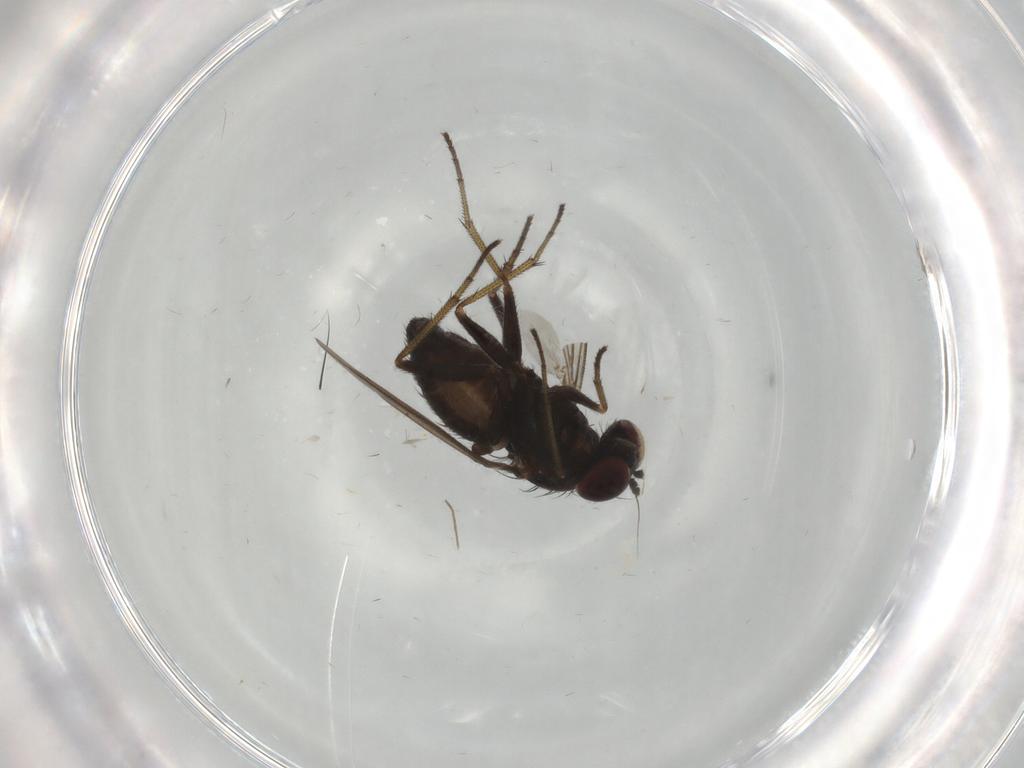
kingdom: Animalia
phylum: Arthropoda
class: Insecta
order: Diptera
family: Dolichopodidae
